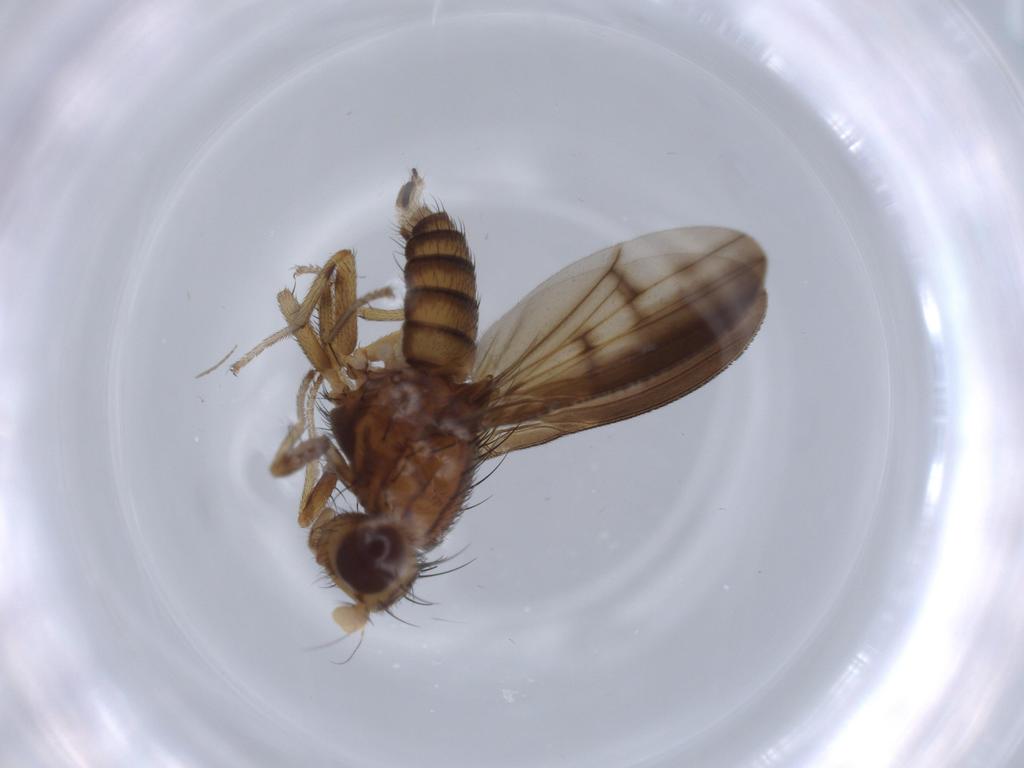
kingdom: Animalia
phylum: Arthropoda
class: Insecta
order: Diptera
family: Lauxaniidae
